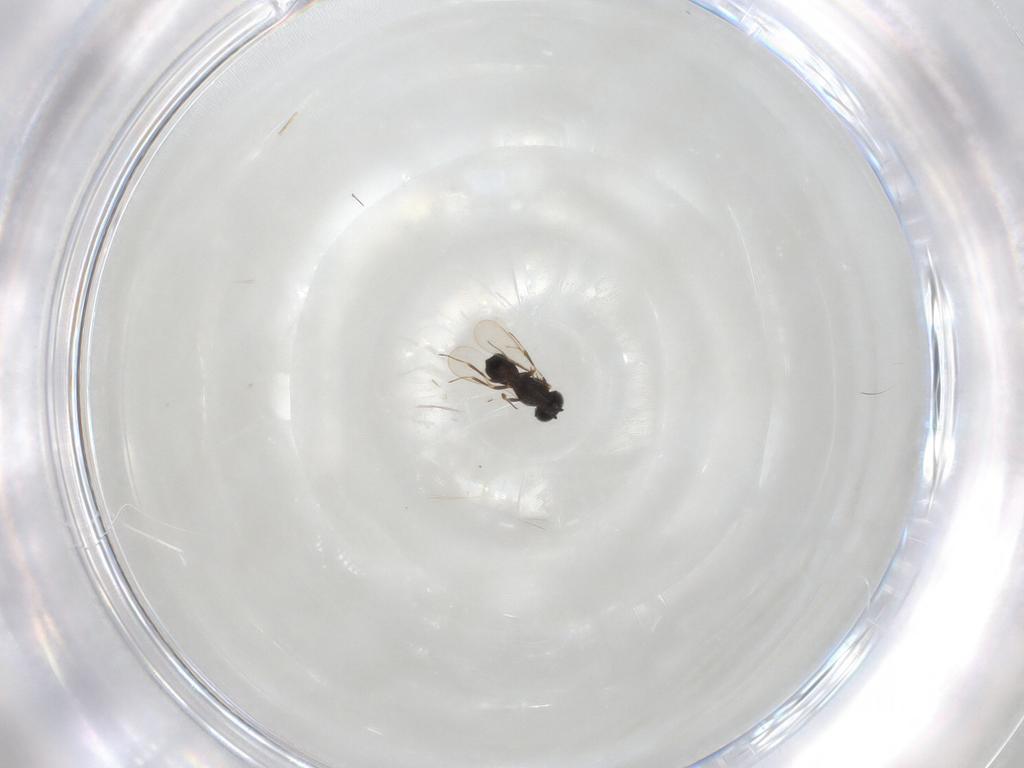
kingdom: Animalia
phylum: Arthropoda
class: Insecta
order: Hymenoptera
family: Scelionidae
